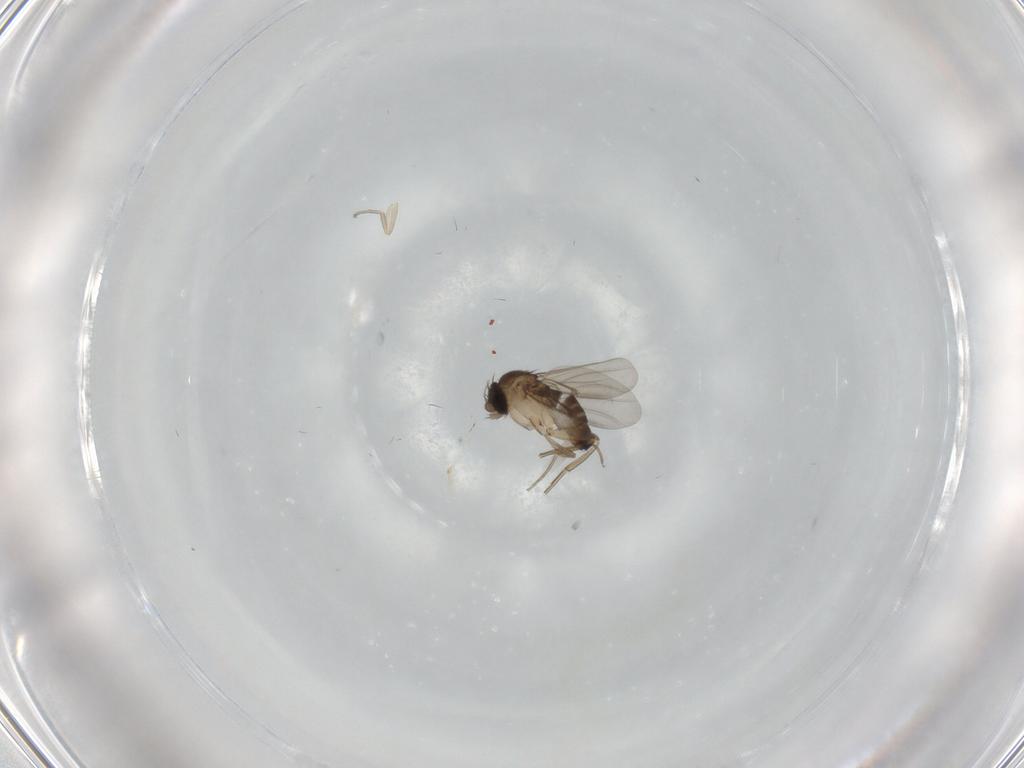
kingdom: Animalia
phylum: Arthropoda
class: Insecta
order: Diptera
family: Phoridae
